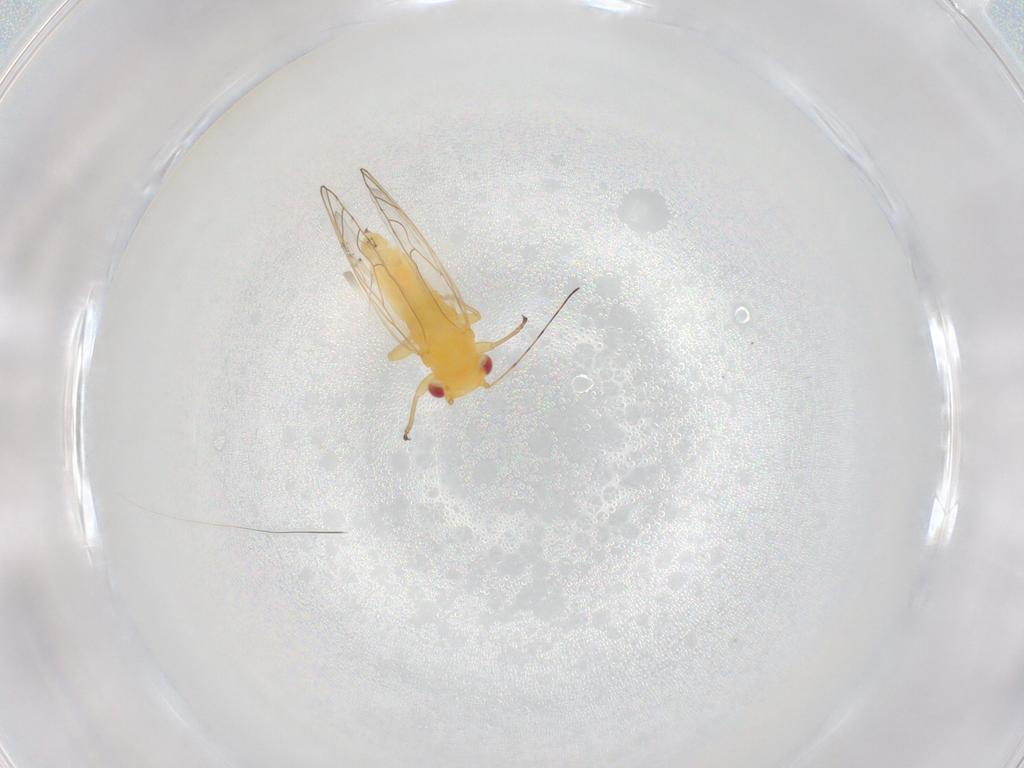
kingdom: Animalia
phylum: Arthropoda
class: Insecta
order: Hemiptera
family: Psyllidae
